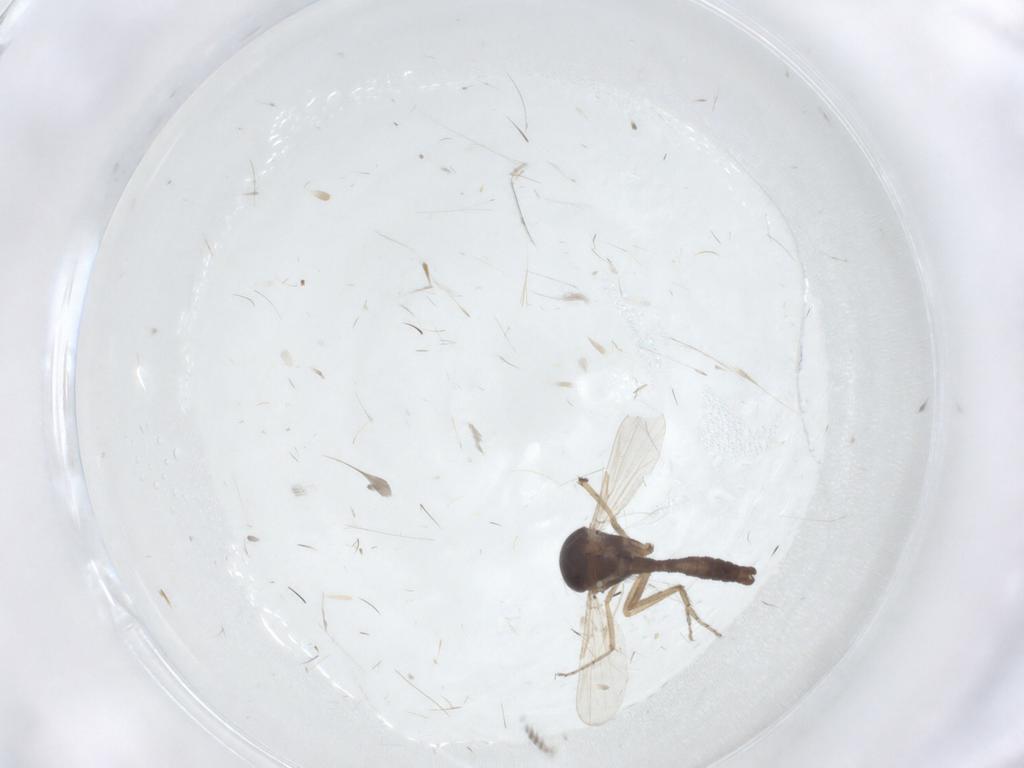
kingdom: Animalia
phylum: Arthropoda
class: Insecta
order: Diptera
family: Ceratopogonidae
